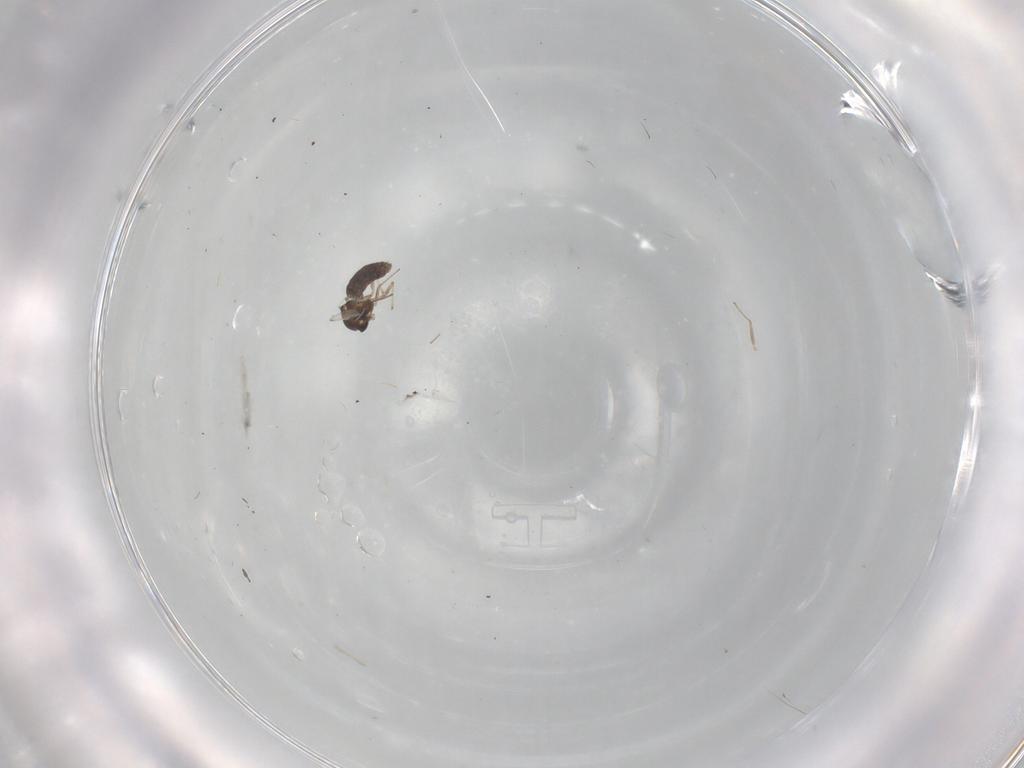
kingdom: Animalia
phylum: Arthropoda
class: Insecta
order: Diptera
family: Chironomidae
